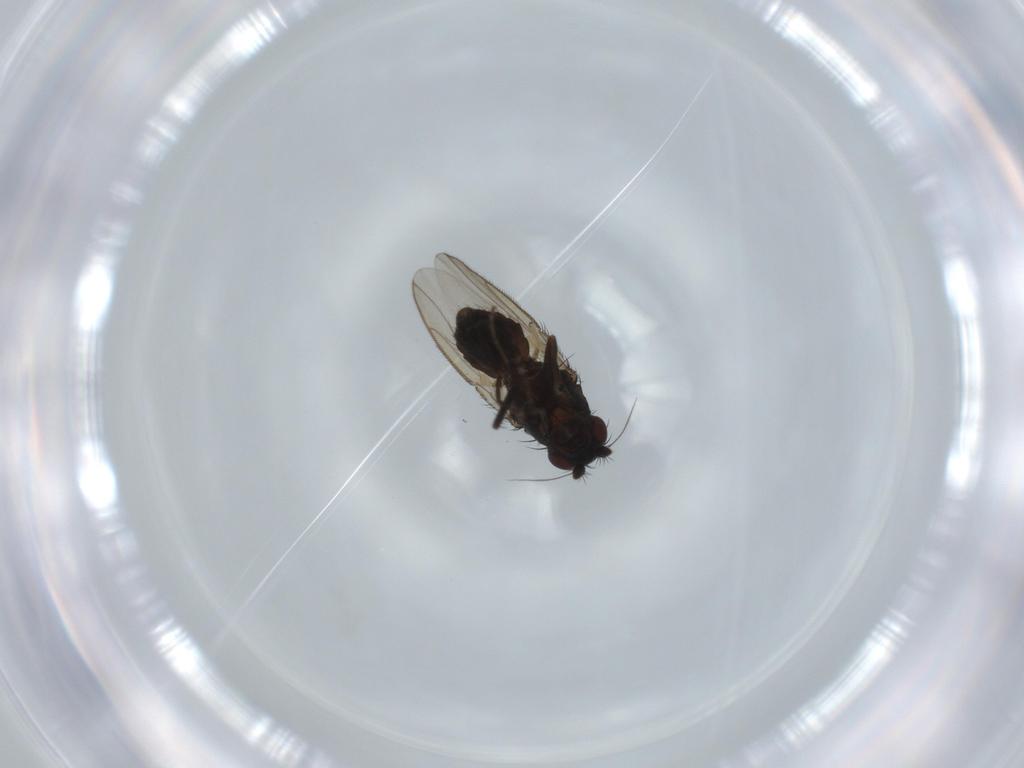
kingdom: Animalia
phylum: Arthropoda
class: Insecta
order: Diptera
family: Sphaeroceridae
